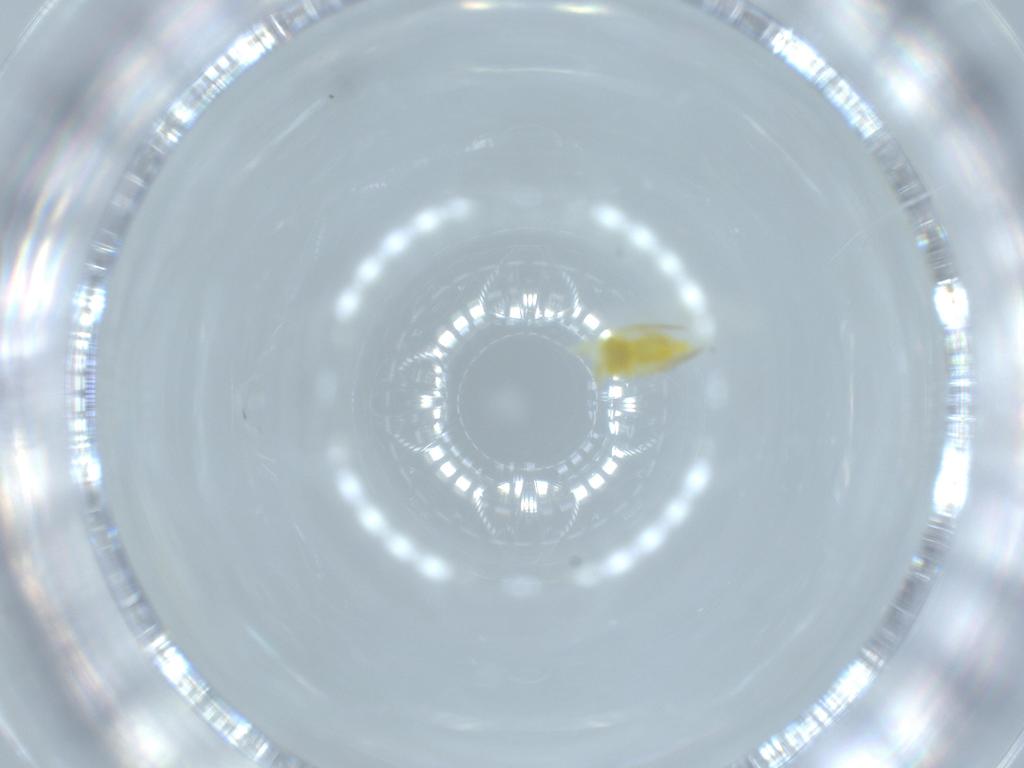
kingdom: Animalia
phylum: Arthropoda
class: Insecta
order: Hemiptera
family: Aleyrodidae
